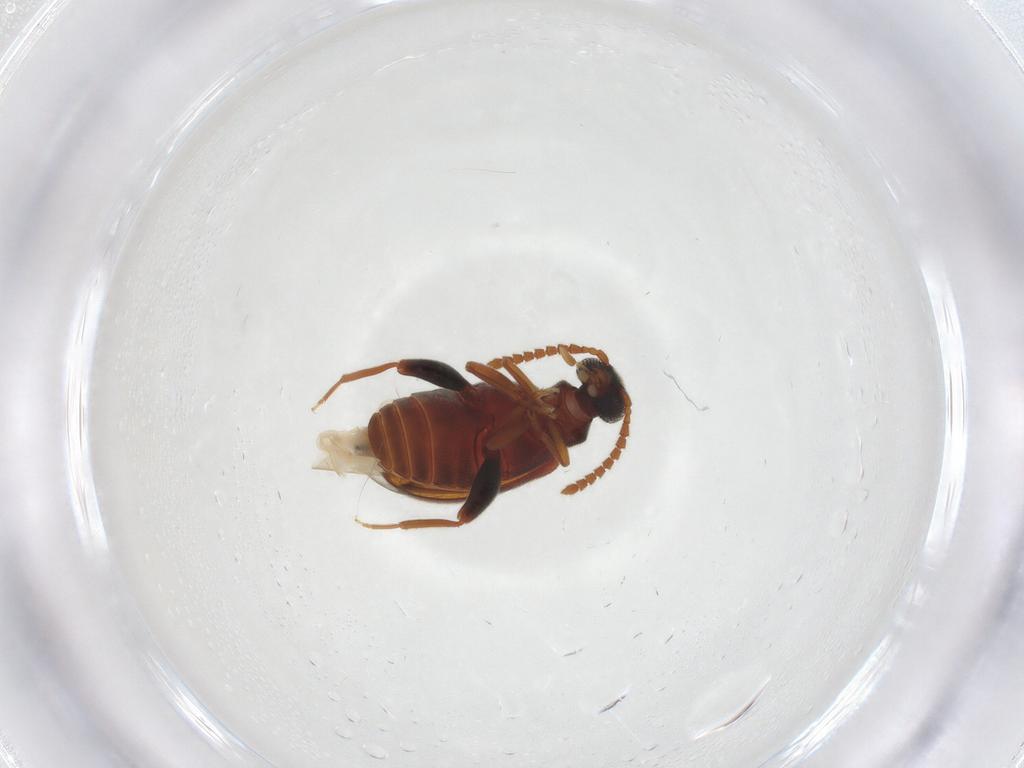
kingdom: Animalia
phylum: Arthropoda
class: Insecta
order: Coleoptera
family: Aderidae
